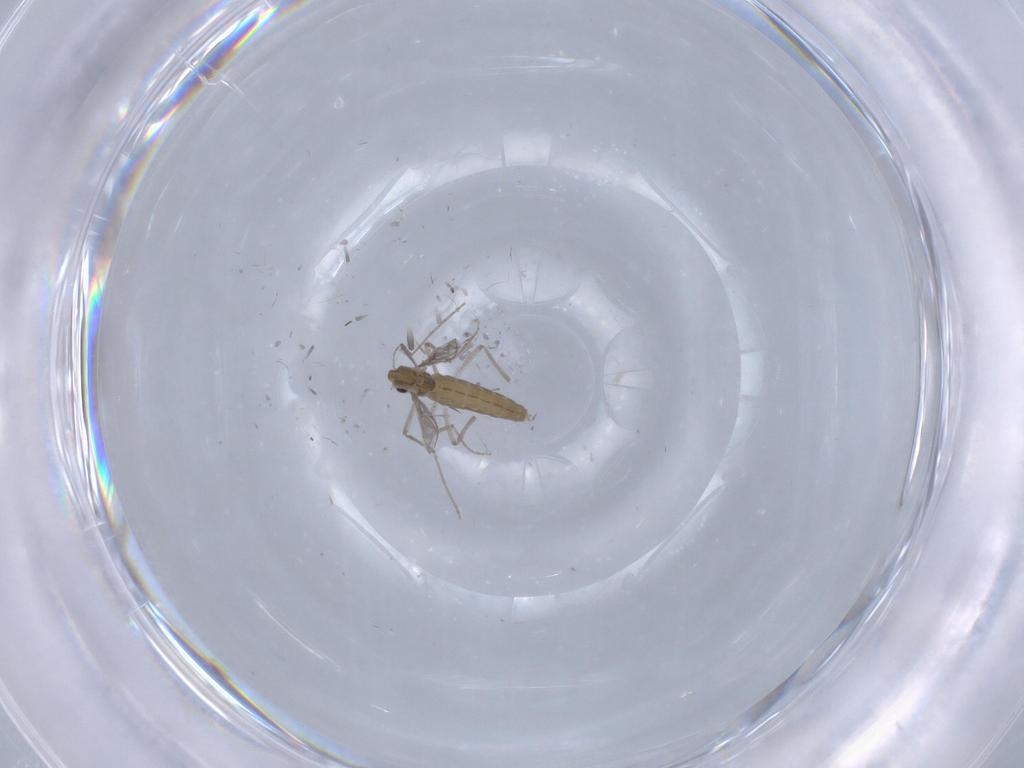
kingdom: Animalia
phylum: Arthropoda
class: Insecta
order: Diptera
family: Chironomidae
